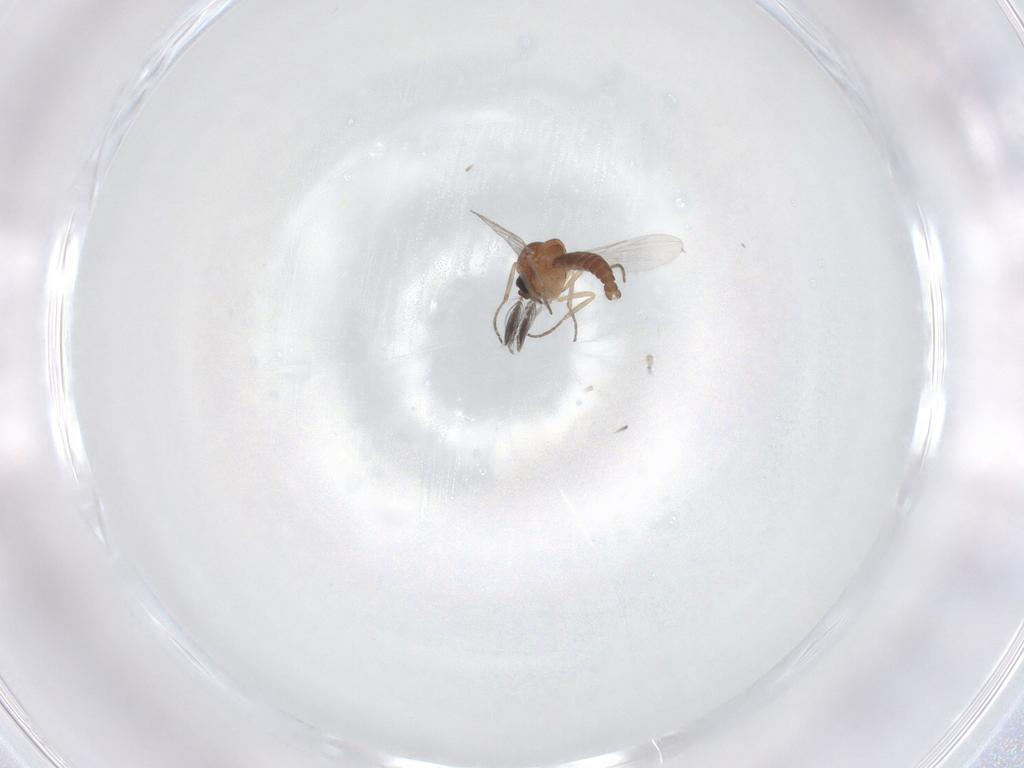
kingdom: Animalia
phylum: Arthropoda
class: Insecta
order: Diptera
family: Ceratopogonidae
